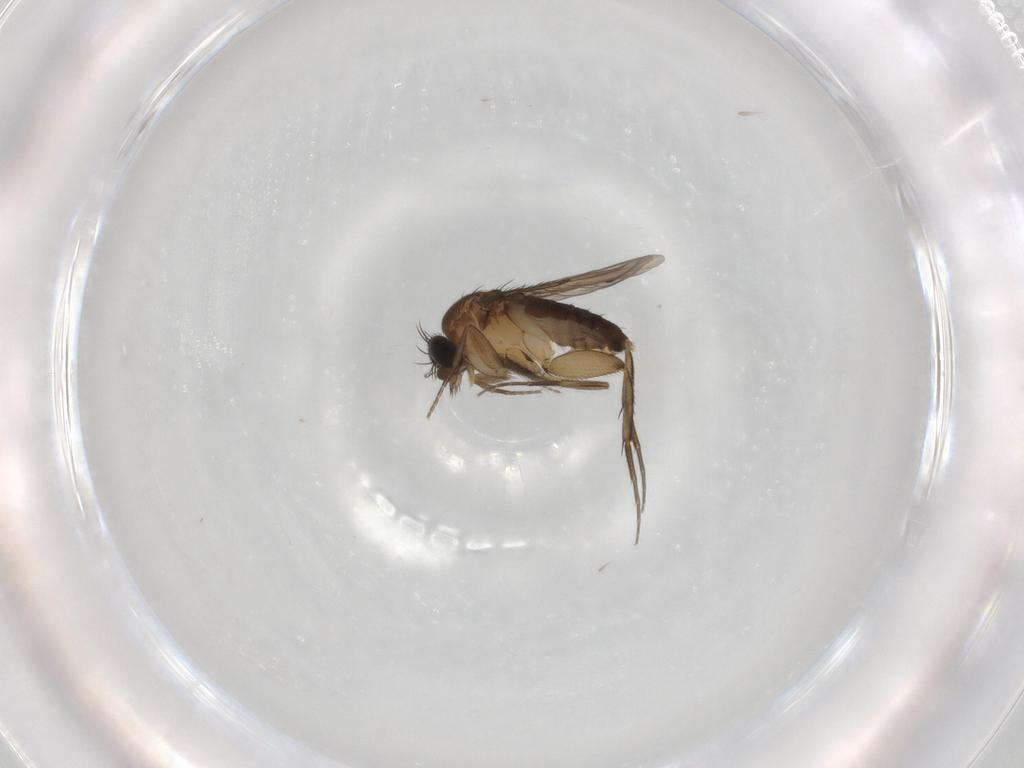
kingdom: Animalia
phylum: Arthropoda
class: Insecta
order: Diptera
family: Phoridae
